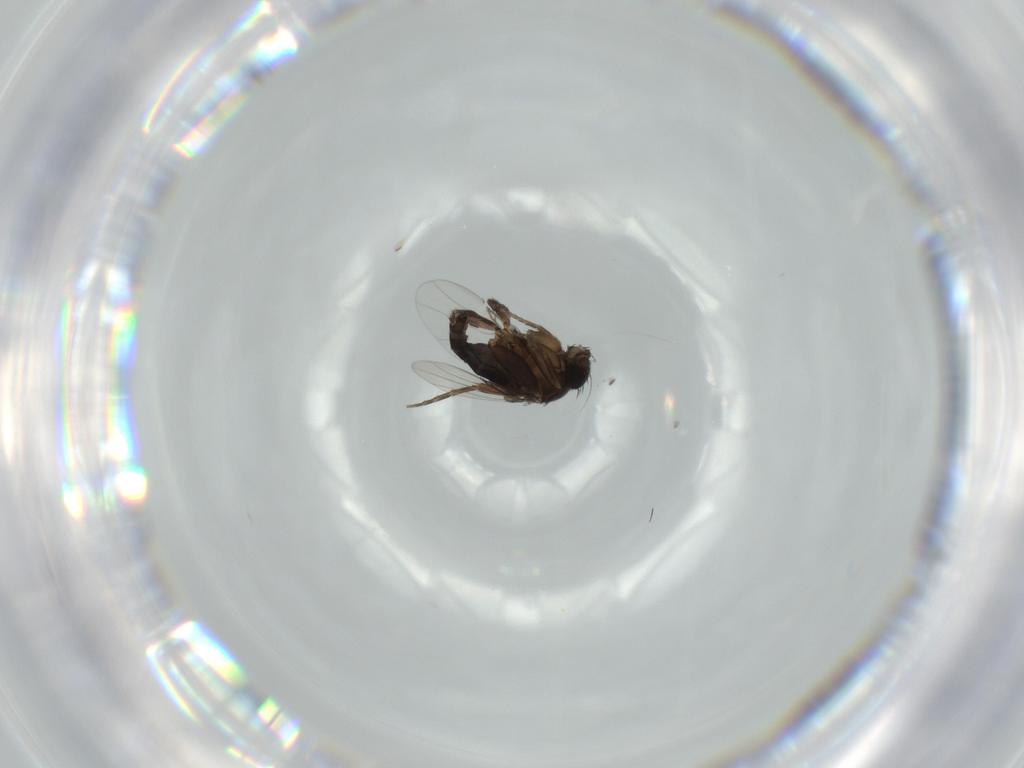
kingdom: Animalia
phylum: Arthropoda
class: Insecta
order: Diptera
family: Phoridae
